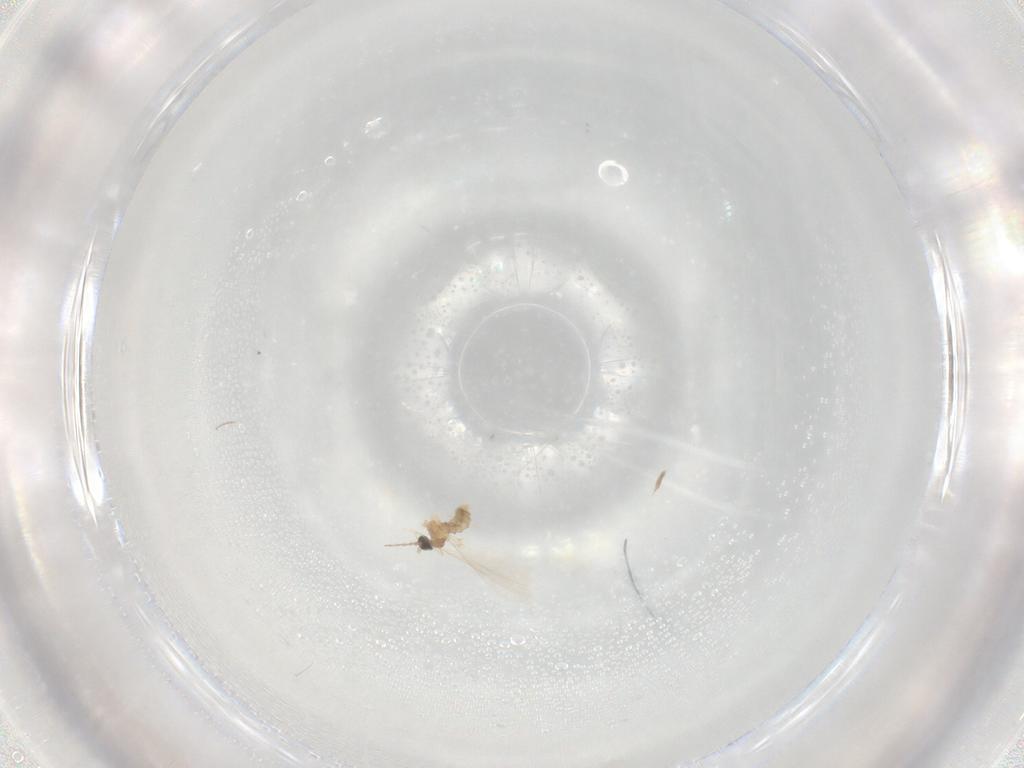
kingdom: Animalia
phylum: Arthropoda
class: Insecta
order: Diptera
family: Cecidomyiidae
